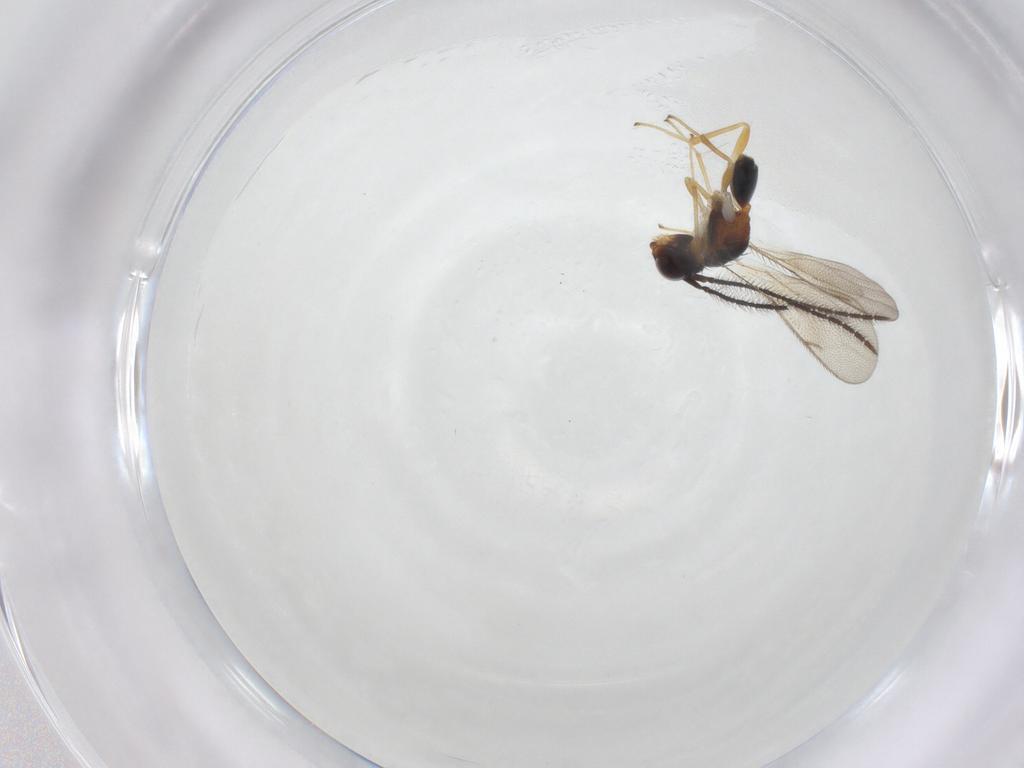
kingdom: Animalia
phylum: Arthropoda
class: Insecta
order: Hymenoptera
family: Diparidae
